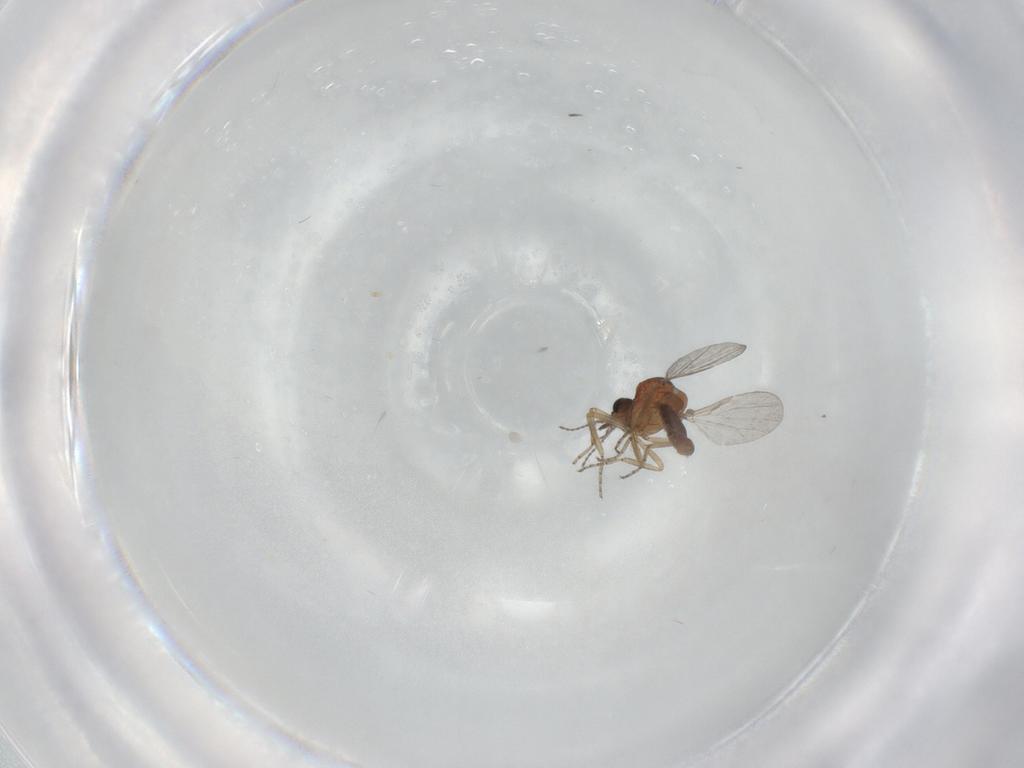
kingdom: Animalia
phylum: Arthropoda
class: Insecta
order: Diptera
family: Ceratopogonidae
